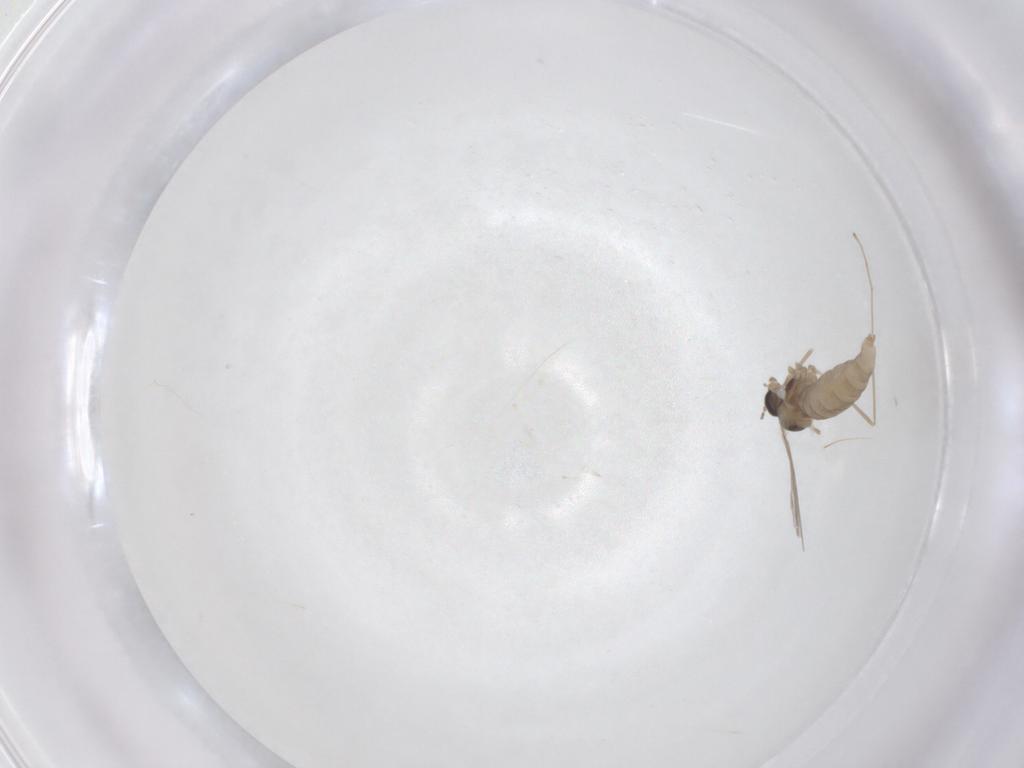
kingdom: Animalia
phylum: Arthropoda
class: Insecta
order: Diptera
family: Cecidomyiidae
